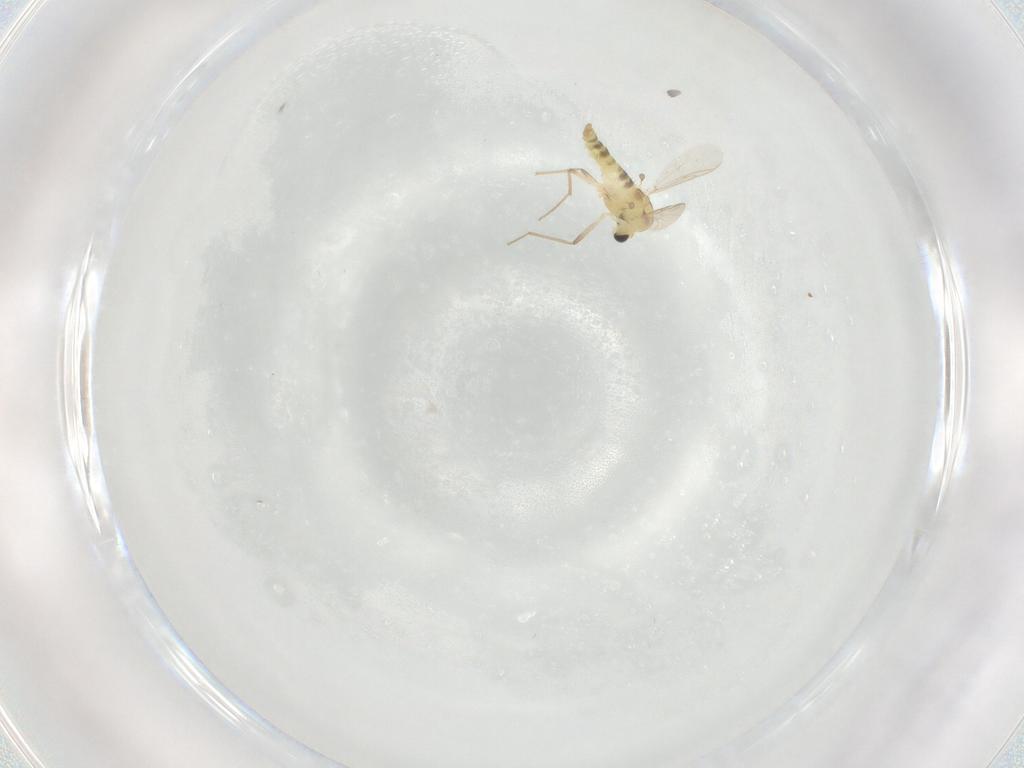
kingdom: Animalia
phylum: Arthropoda
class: Insecta
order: Diptera
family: Chironomidae
